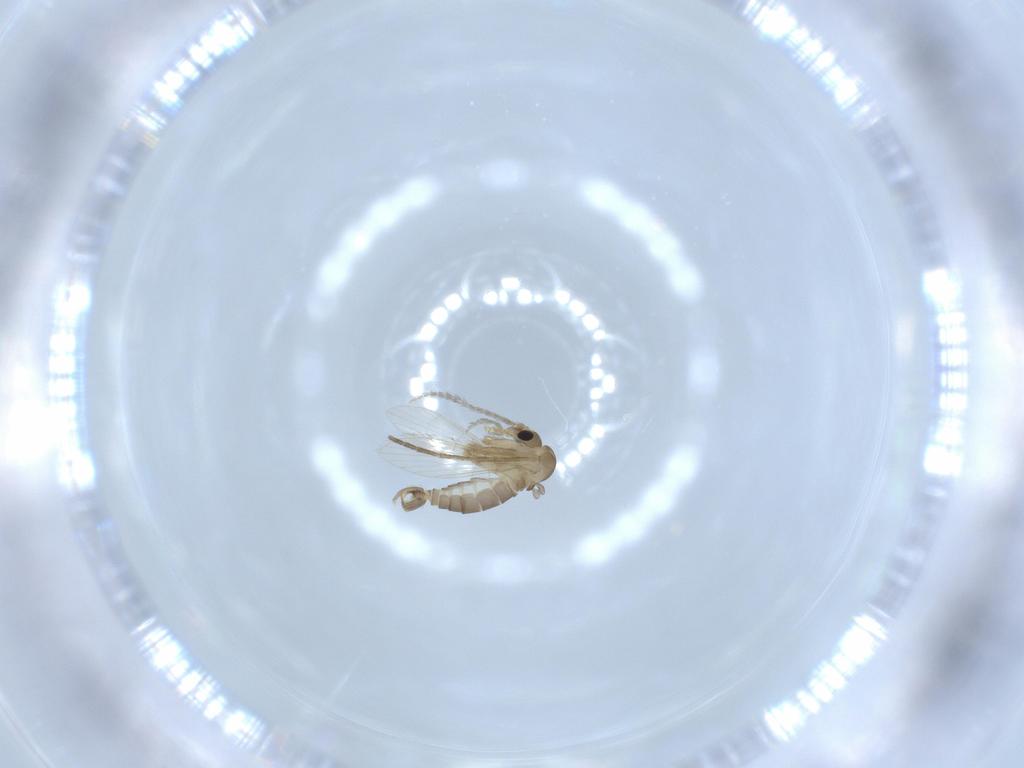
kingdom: Animalia
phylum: Arthropoda
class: Insecta
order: Diptera
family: Psychodidae
